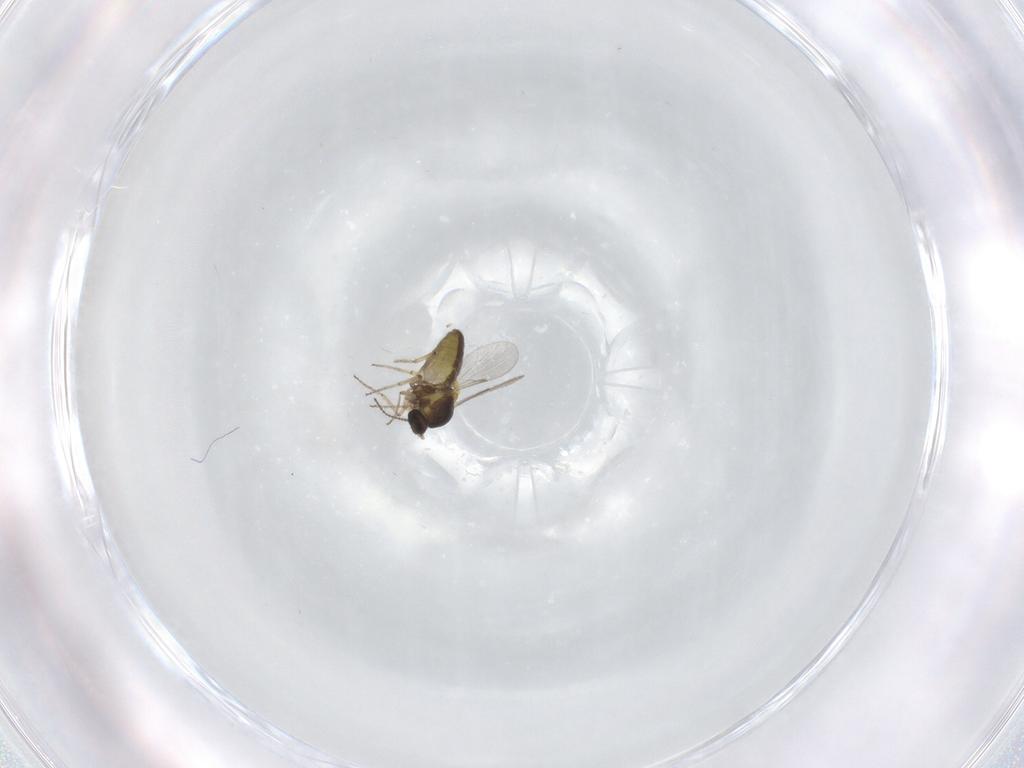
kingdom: Animalia
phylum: Arthropoda
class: Insecta
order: Diptera
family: Ceratopogonidae
